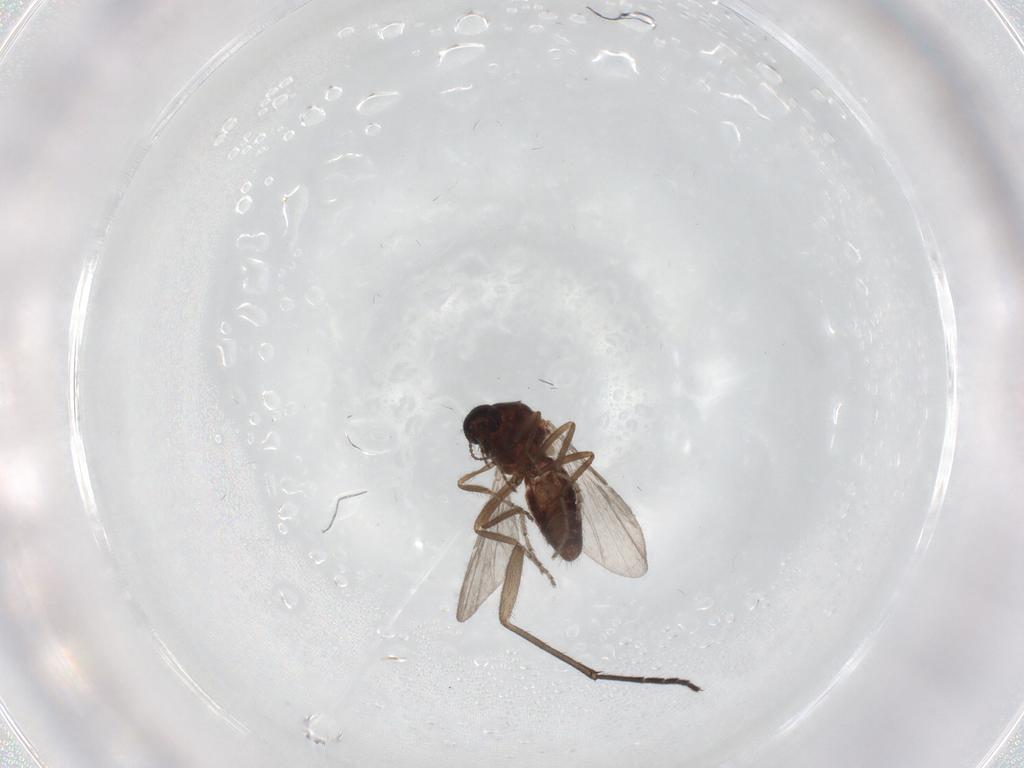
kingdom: Animalia
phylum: Arthropoda
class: Insecta
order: Diptera
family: Ceratopogonidae
